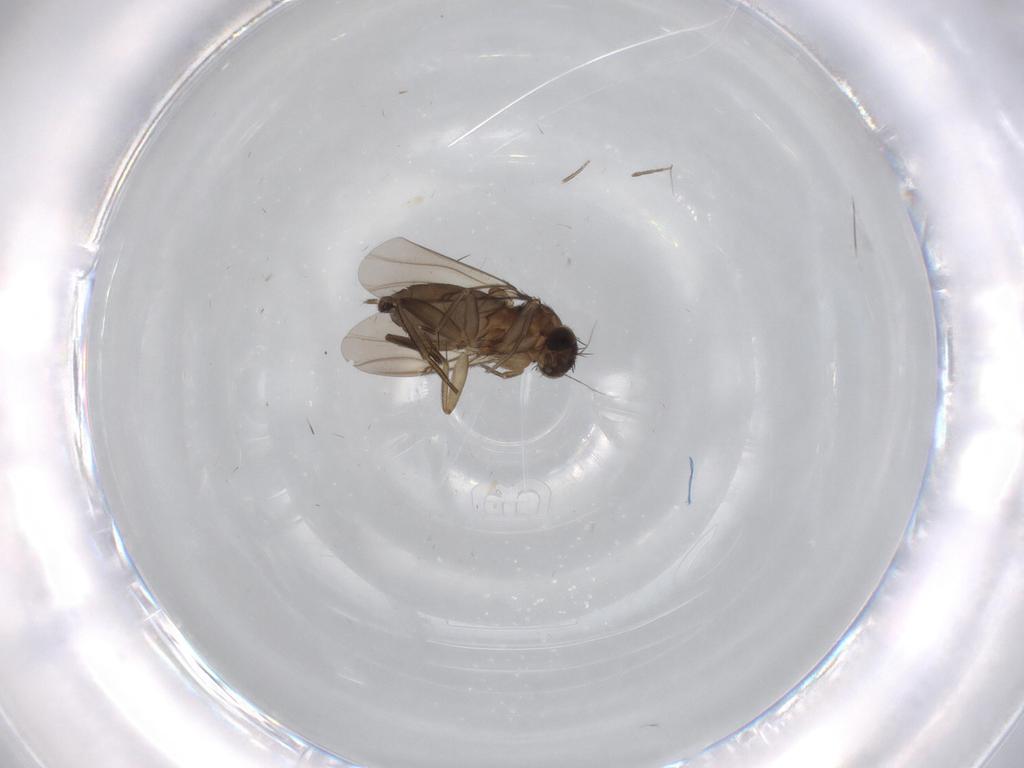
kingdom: Animalia
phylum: Arthropoda
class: Insecta
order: Diptera
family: Phoridae
